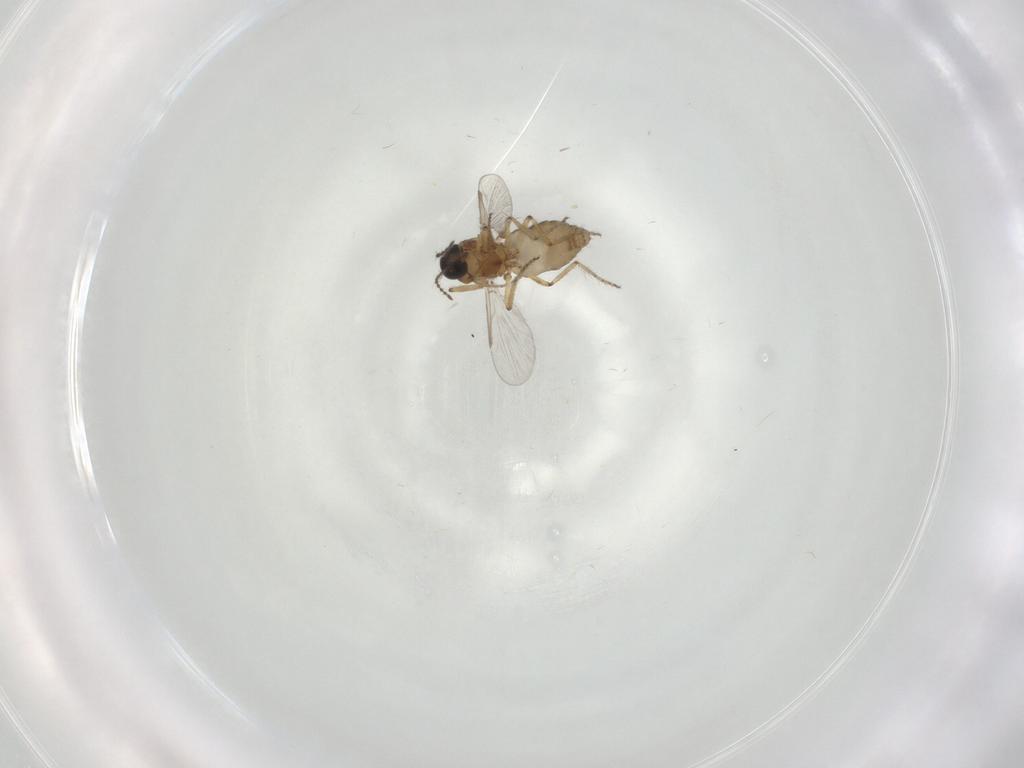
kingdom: Animalia
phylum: Arthropoda
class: Insecta
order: Diptera
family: Ceratopogonidae
